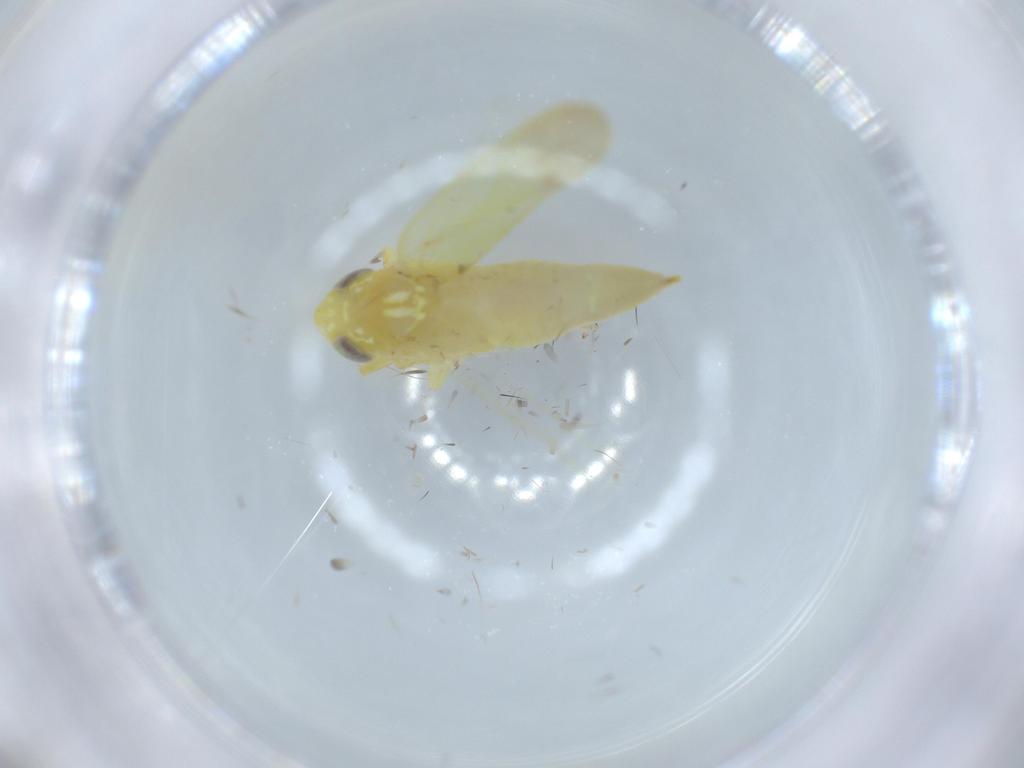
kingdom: Animalia
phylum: Arthropoda
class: Insecta
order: Hemiptera
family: Cicadellidae
